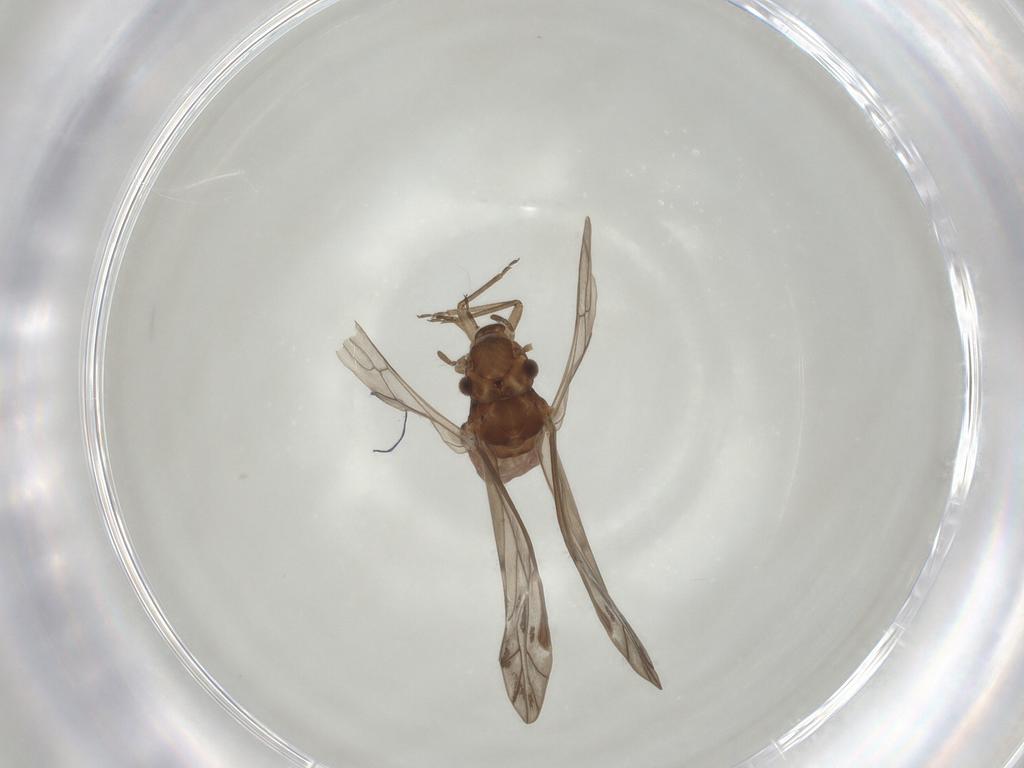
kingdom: Animalia
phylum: Arthropoda
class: Insecta
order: Psocodea
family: Peripsocidae
